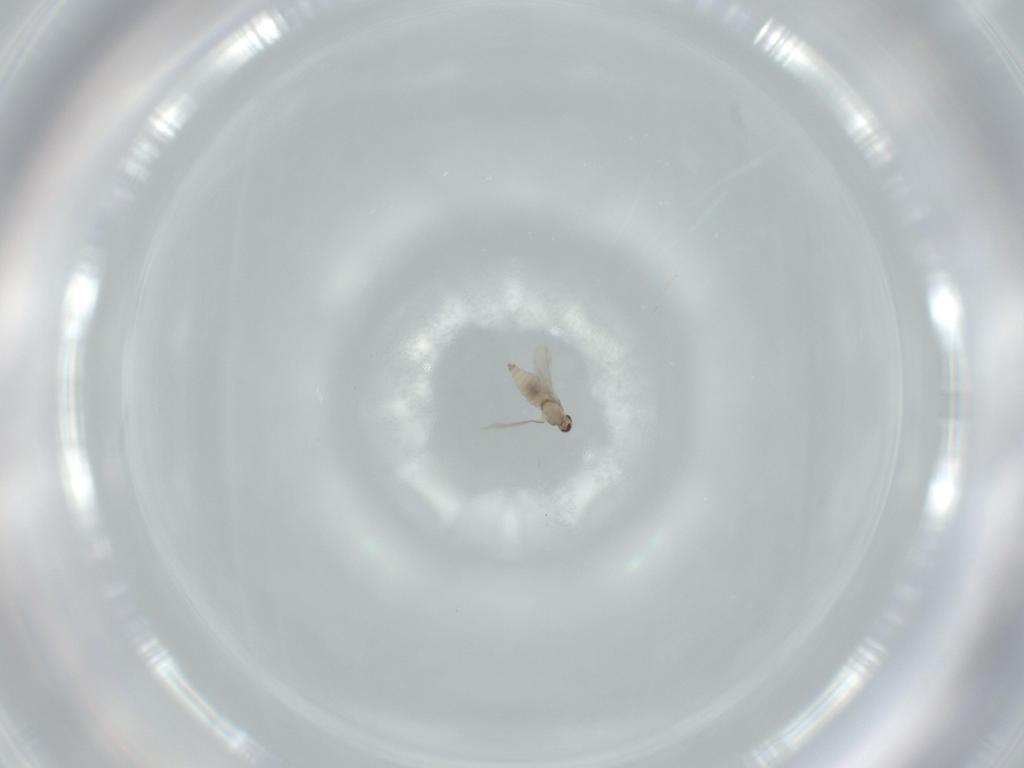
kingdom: Animalia
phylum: Arthropoda
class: Insecta
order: Diptera
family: Cecidomyiidae
